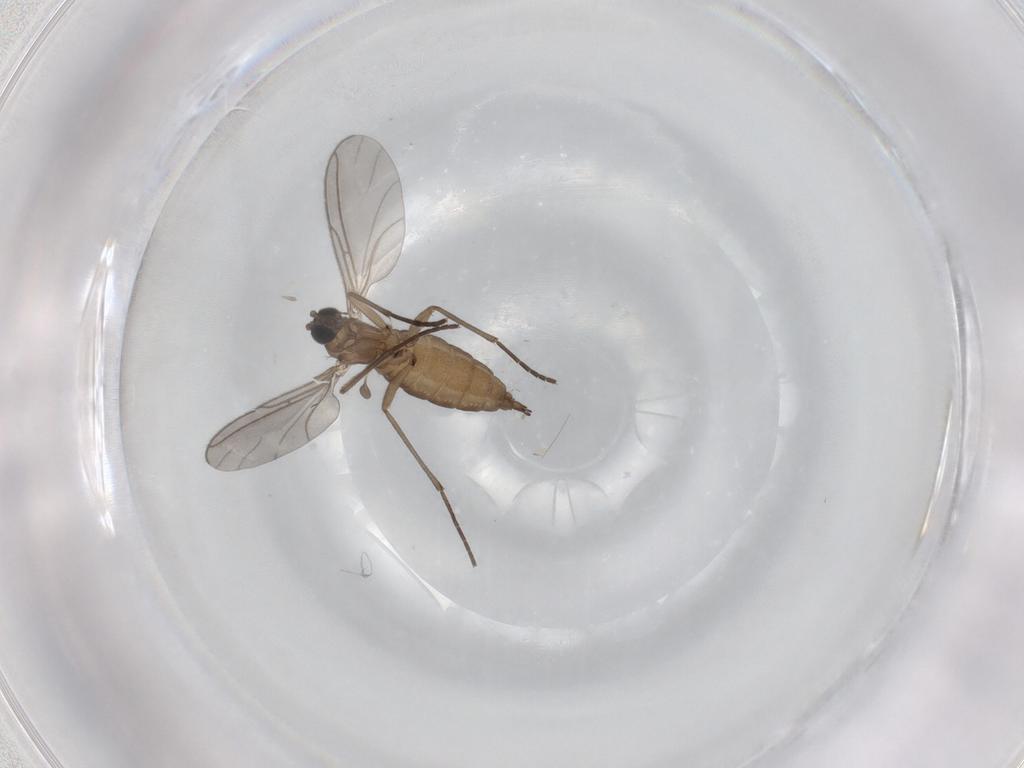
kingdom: Animalia
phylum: Arthropoda
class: Insecta
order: Diptera
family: Sciaridae
